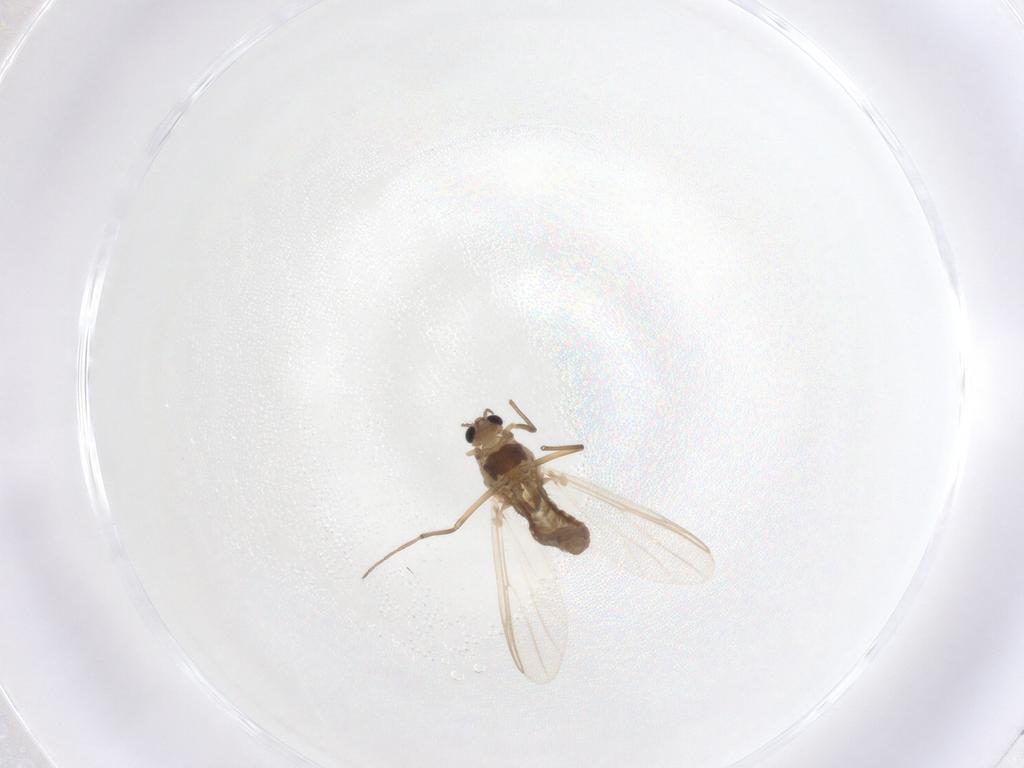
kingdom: Animalia
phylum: Arthropoda
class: Insecta
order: Diptera
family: Chironomidae
